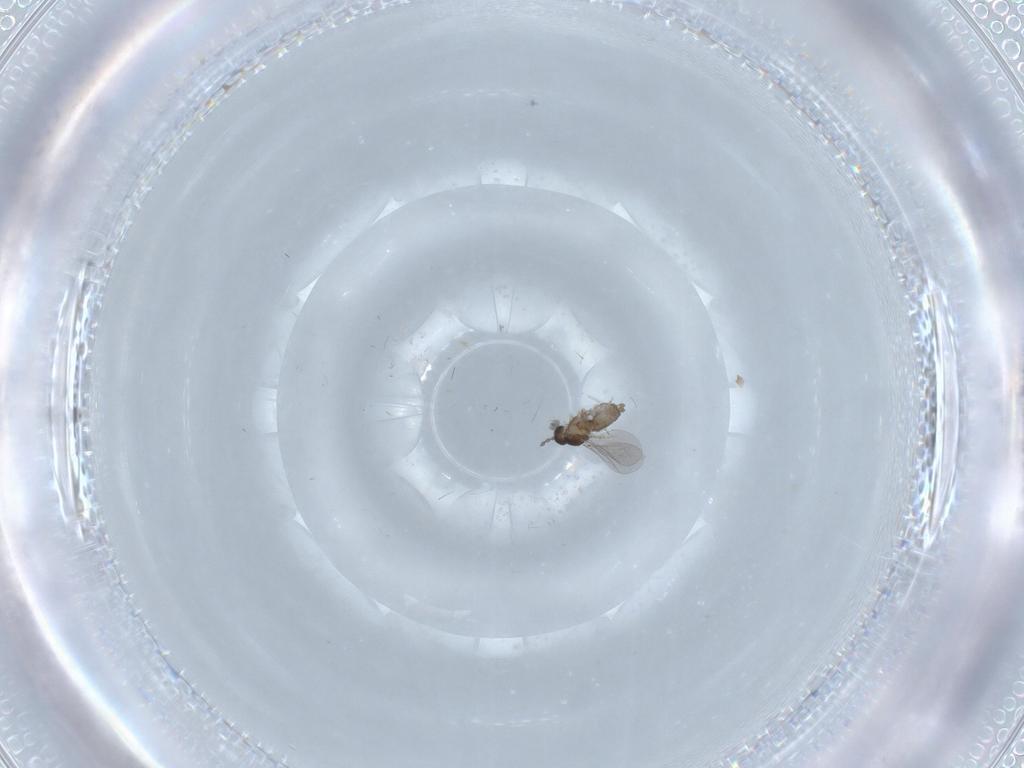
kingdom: Animalia
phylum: Arthropoda
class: Insecta
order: Diptera
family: Cecidomyiidae
